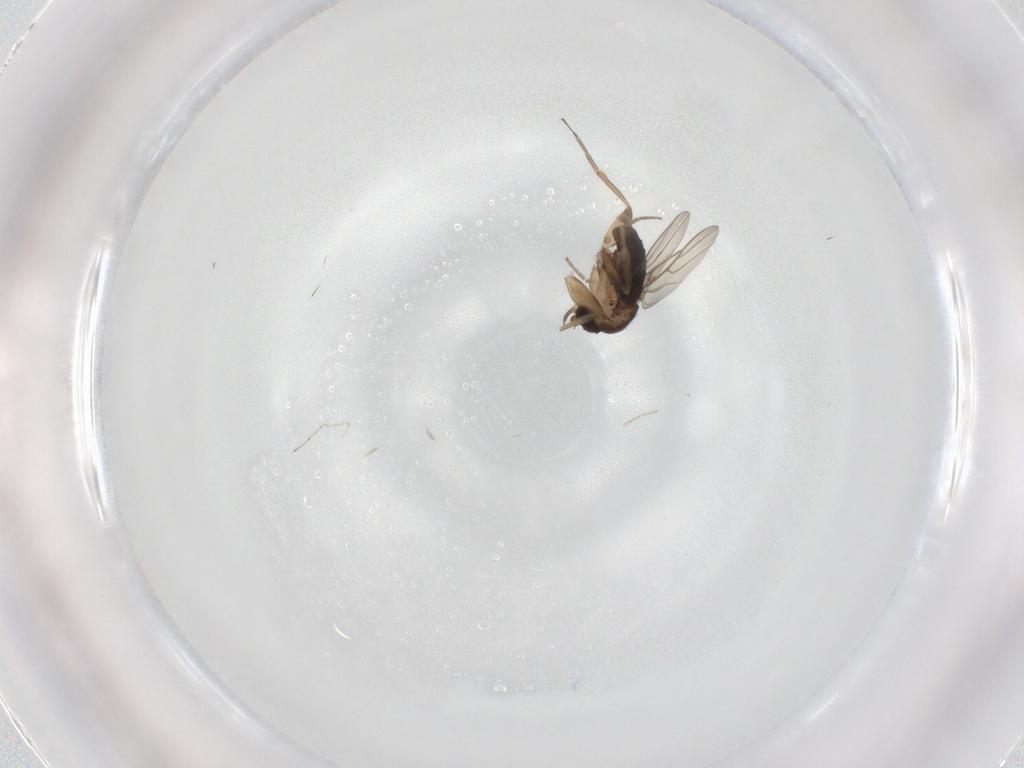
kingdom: Animalia
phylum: Arthropoda
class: Insecta
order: Diptera
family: Phoridae
